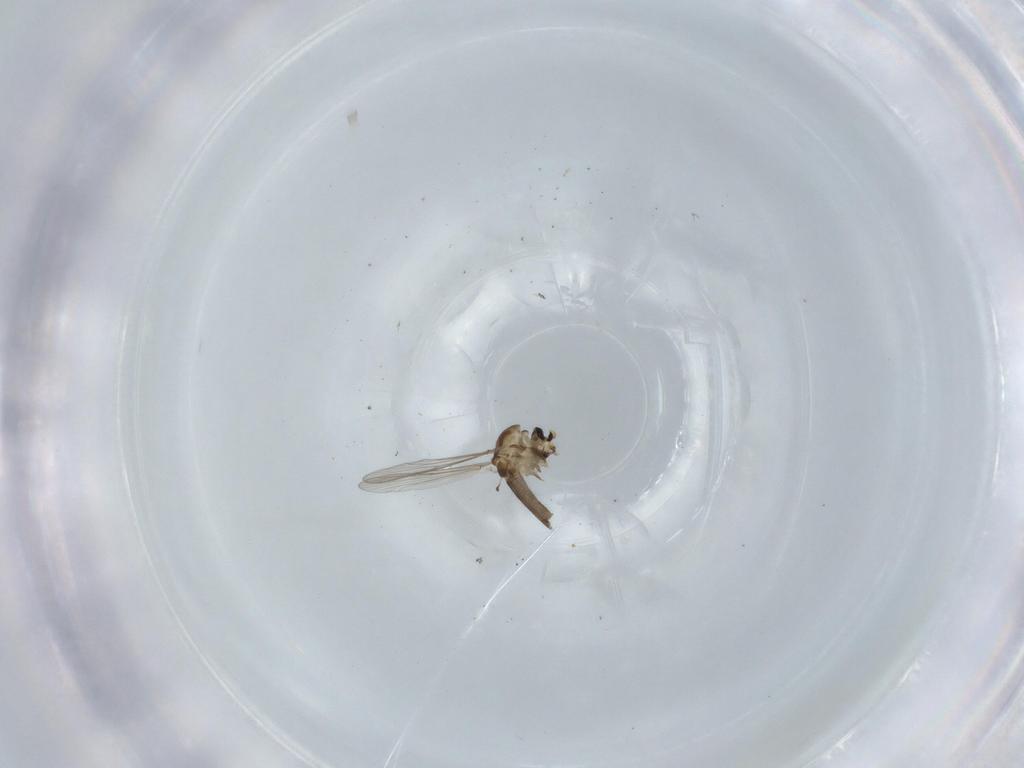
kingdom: Animalia
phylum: Arthropoda
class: Insecta
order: Diptera
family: Chironomidae
